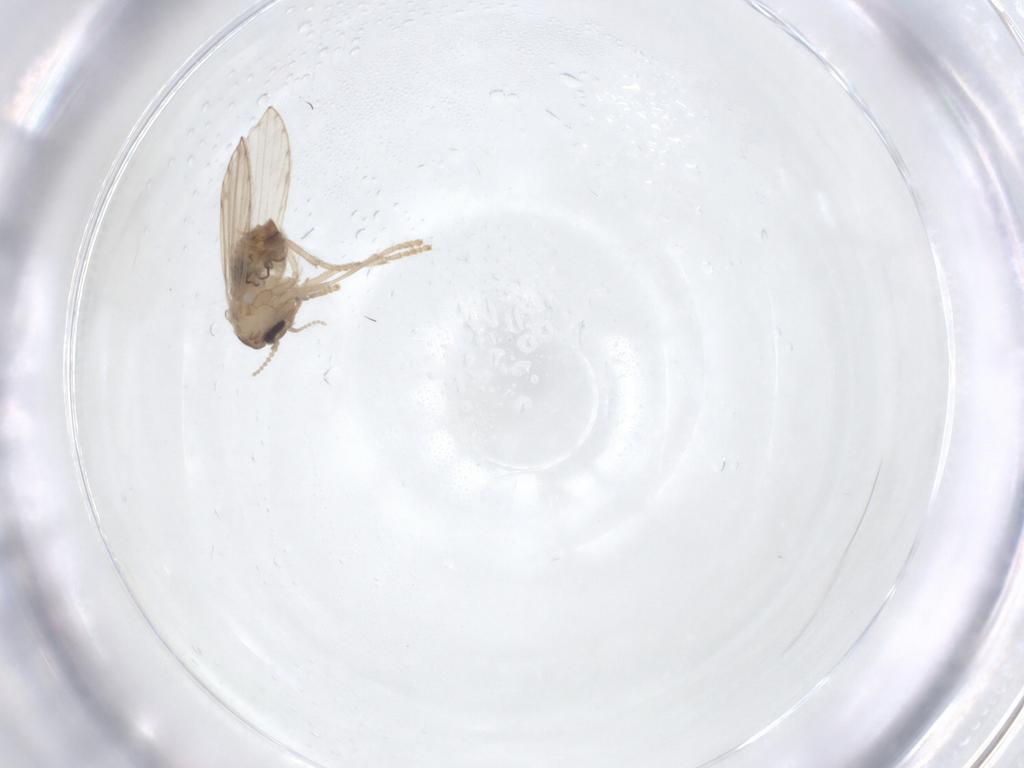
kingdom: Animalia
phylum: Arthropoda
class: Insecta
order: Diptera
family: Psychodidae
